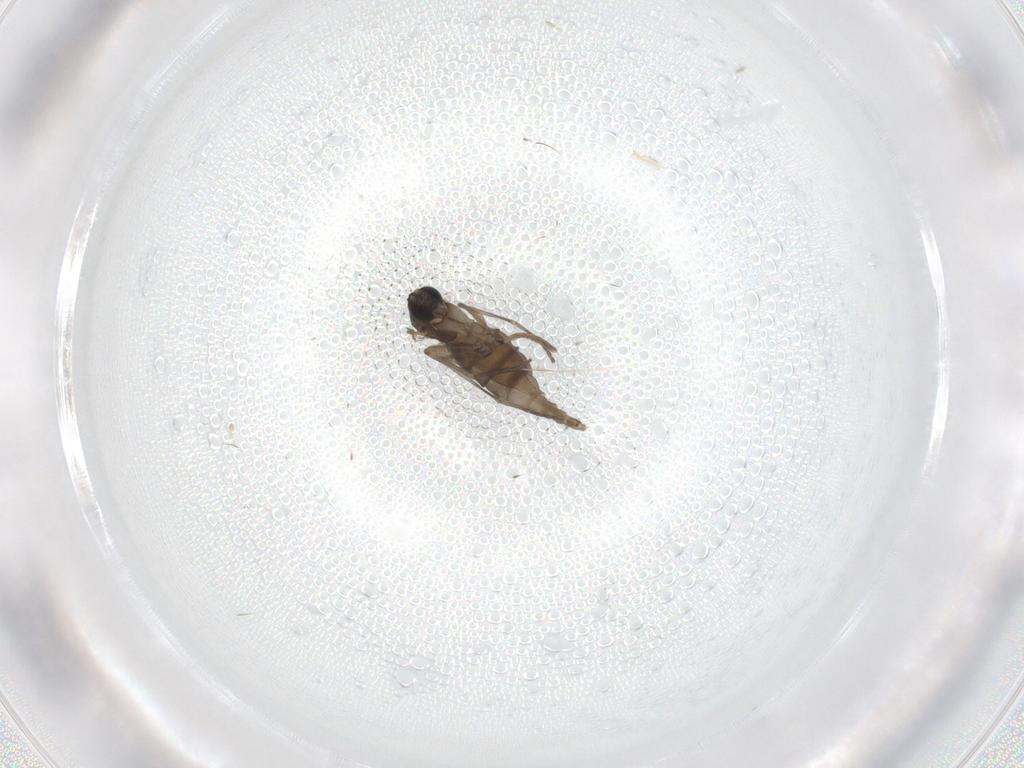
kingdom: Animalia
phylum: Arthropoda
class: Insecta
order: Diptera
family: Sciaridae
